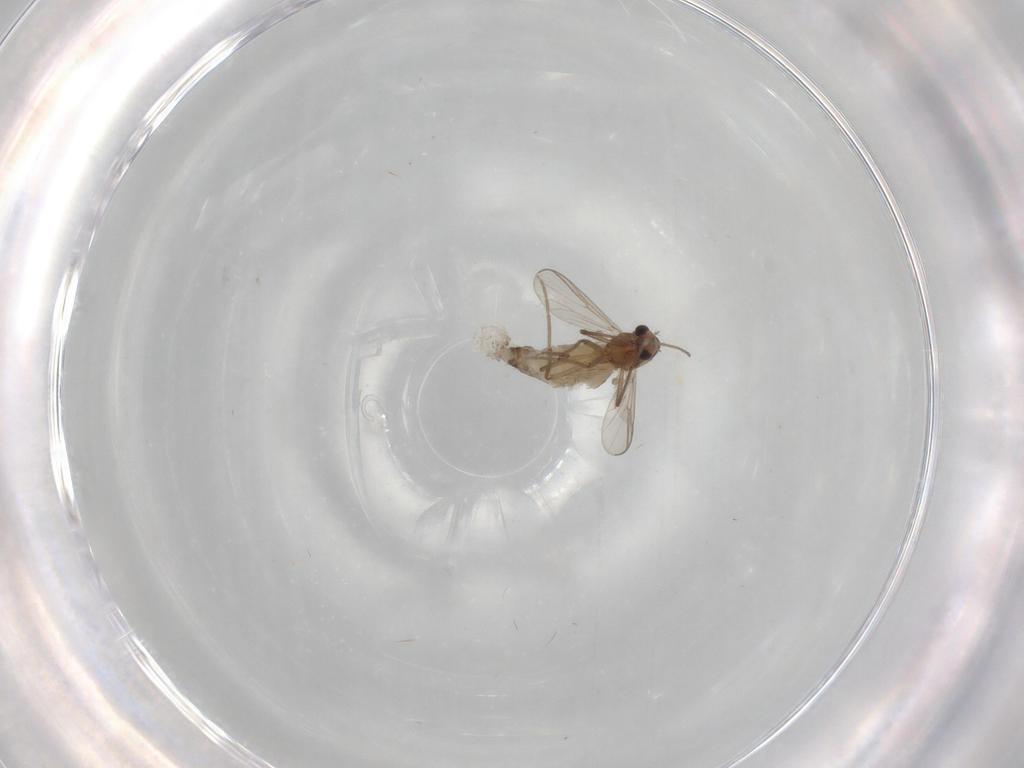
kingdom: Animalia
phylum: Arthropoda
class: Insecta
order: Diptera
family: Chironomidae
